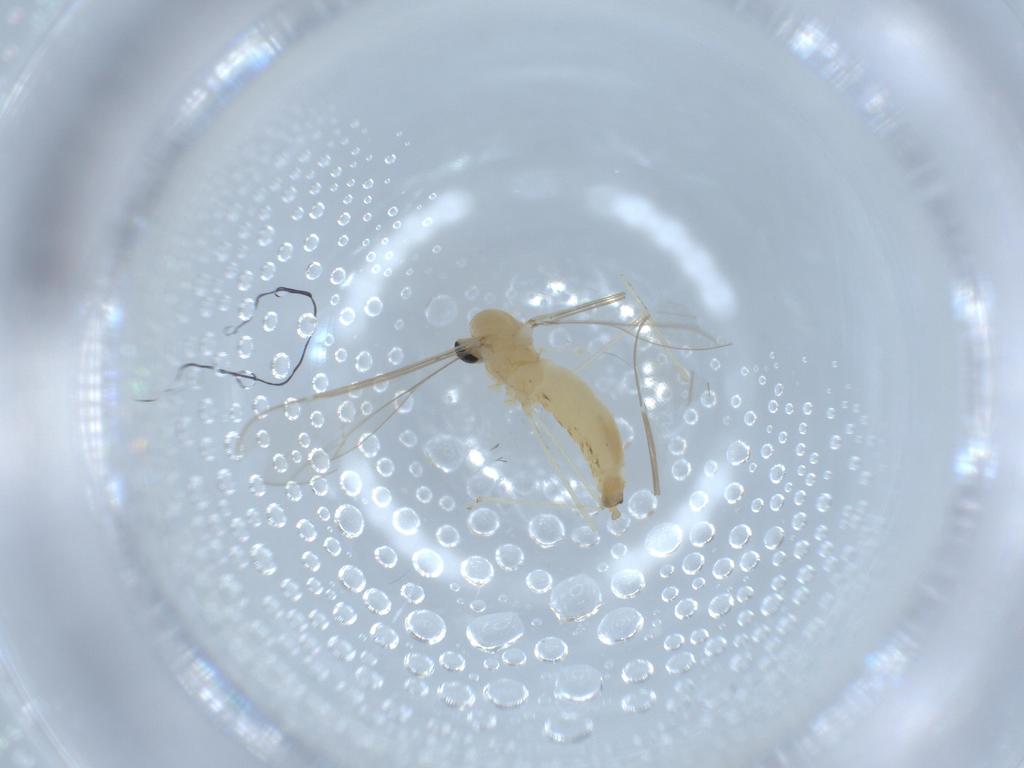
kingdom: Animalia
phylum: Arthropoda
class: Insecta
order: Diptera
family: Cecidomyiidae
